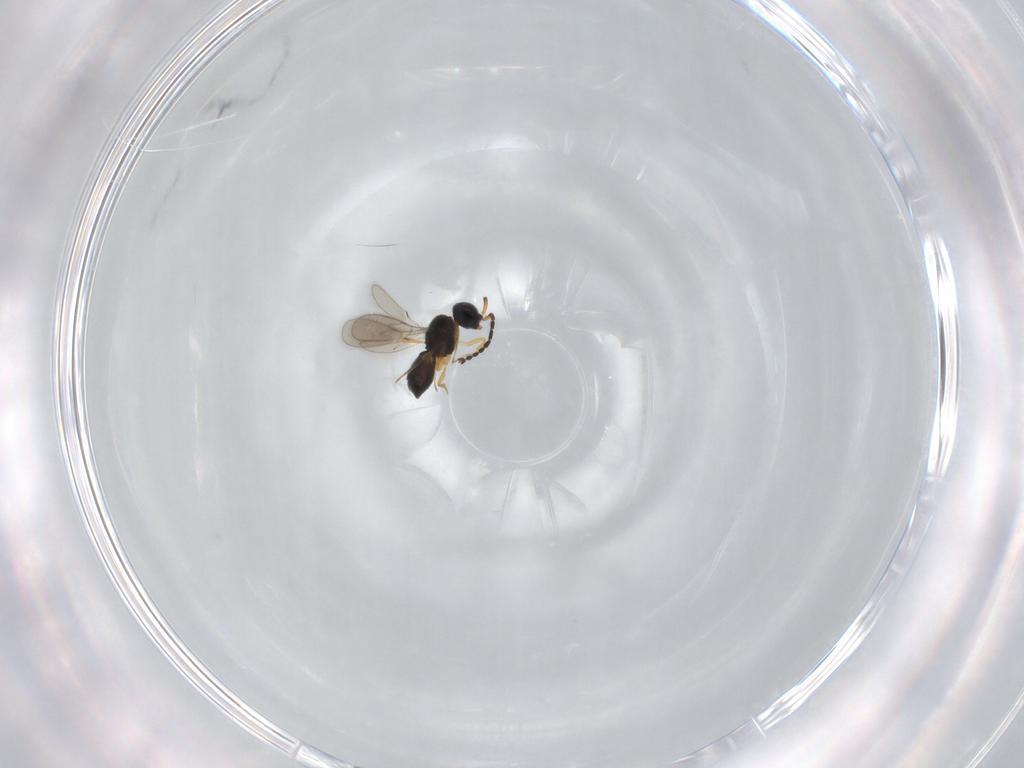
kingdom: Animalia
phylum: Arthropoda
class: Insecta
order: Hymenoptera
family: Scelionidae
